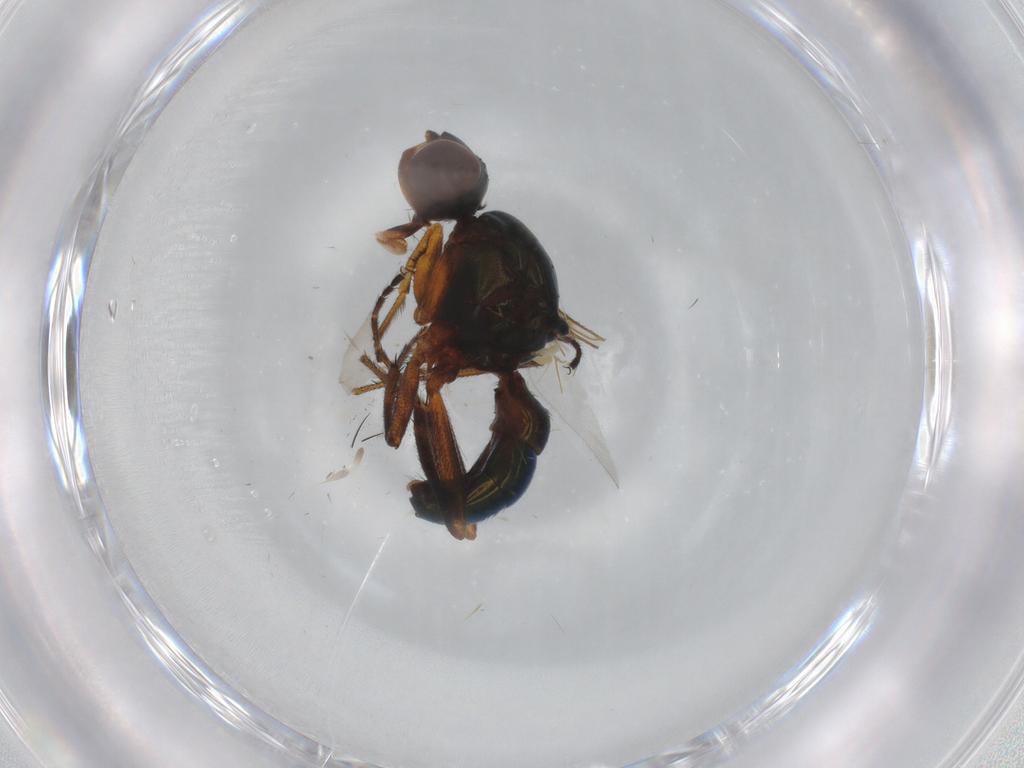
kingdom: Animalia
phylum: Arthropoda
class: Insecta
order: Diptera
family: Sepsidae
